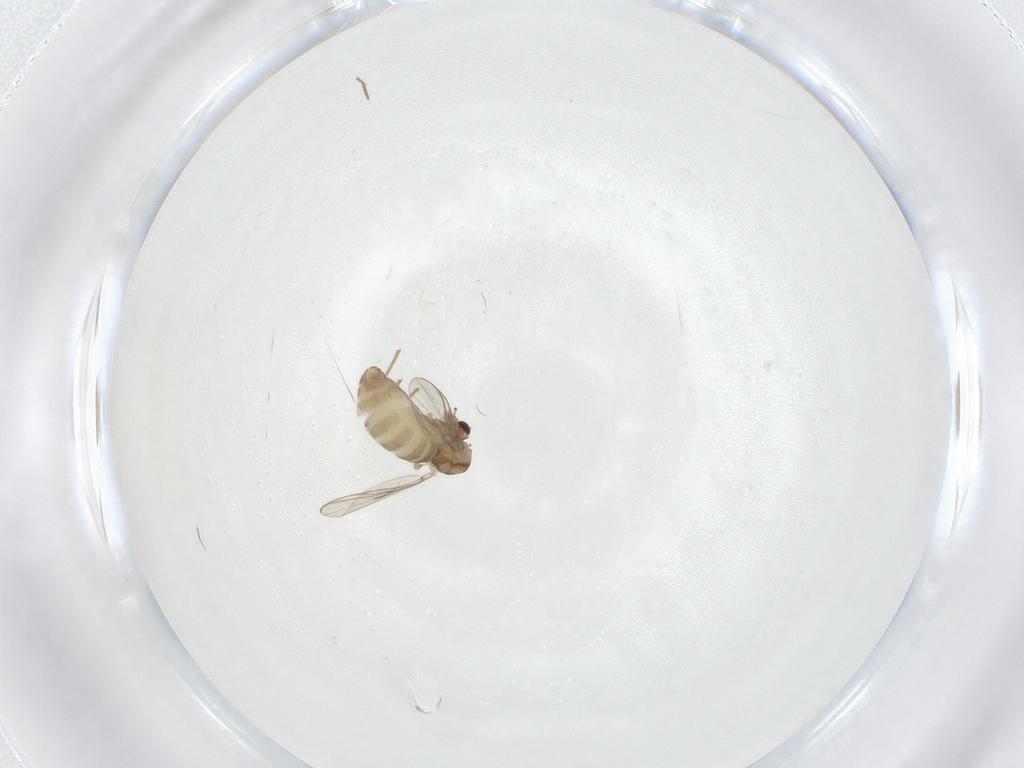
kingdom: Animalia
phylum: Arthropoda
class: Insecta
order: Diptera
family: Chironomidae
